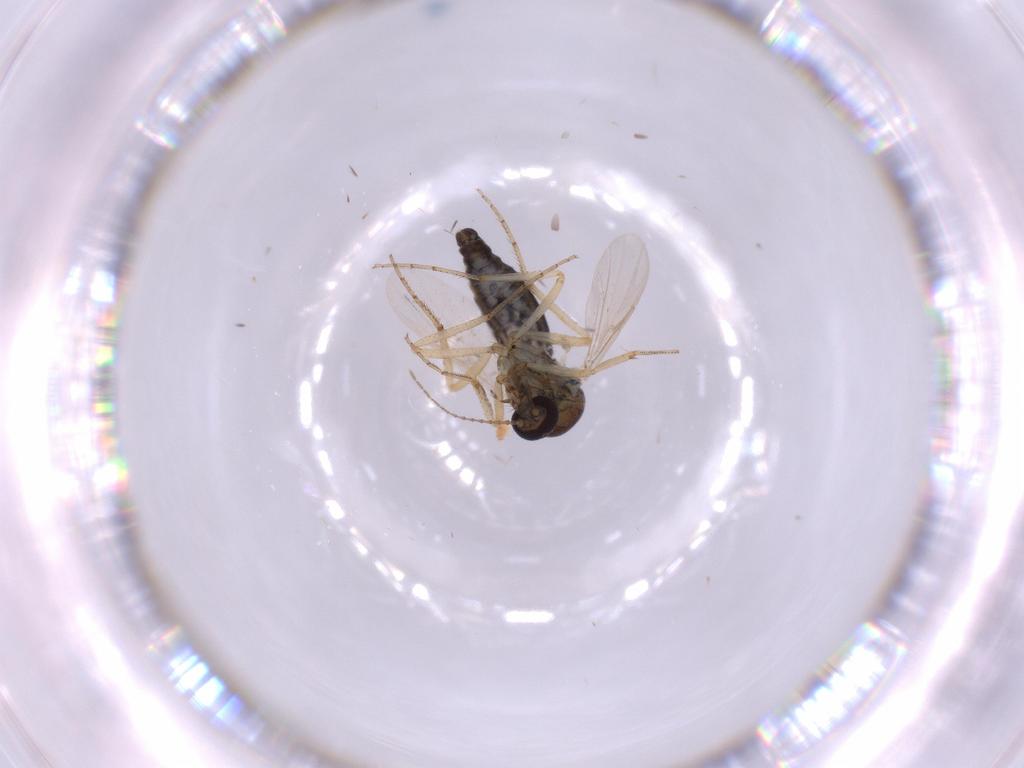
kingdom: Animalia
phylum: Arthropoda
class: Insecta
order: Diptera
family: Ceratopogonidae
